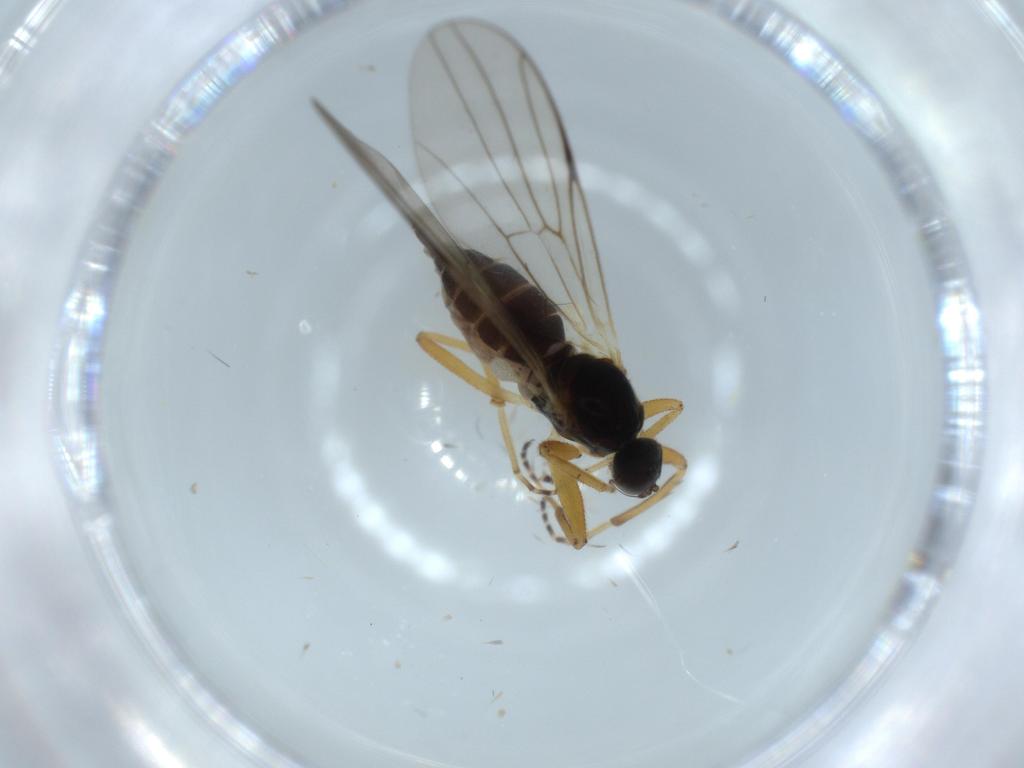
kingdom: Animalia
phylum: Arthropoda
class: Insecta
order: Diptera
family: Hybotidae
